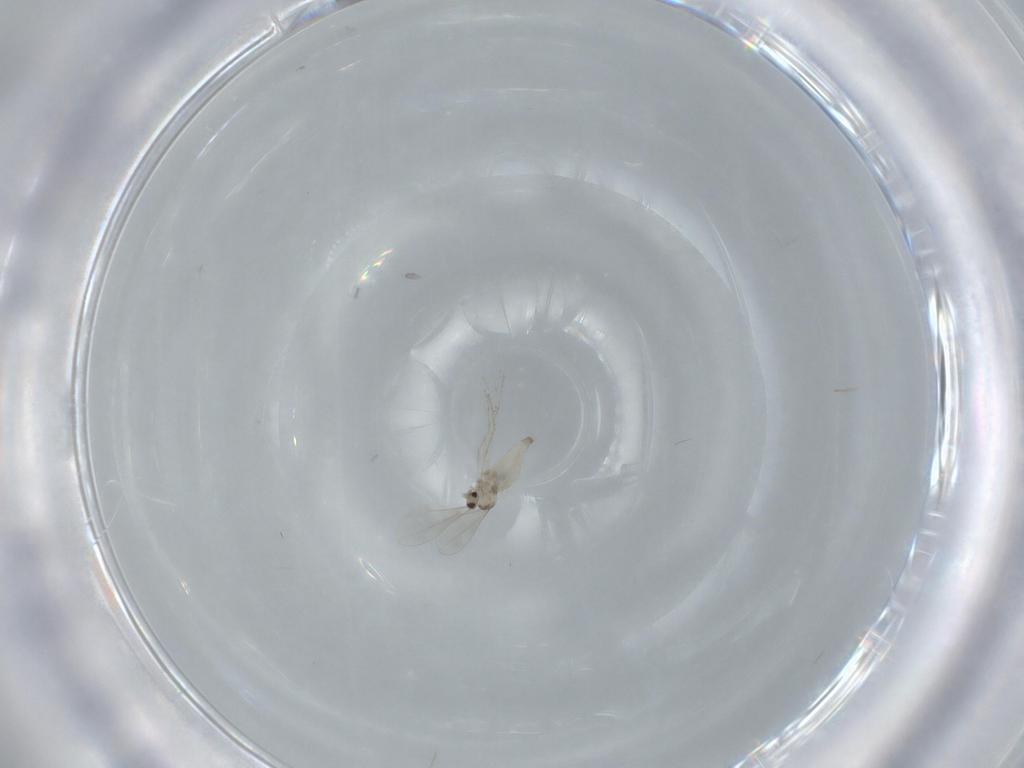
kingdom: Animalia
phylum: Arthropoda
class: Insecta
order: Diptera
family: Cecidomyiidae
